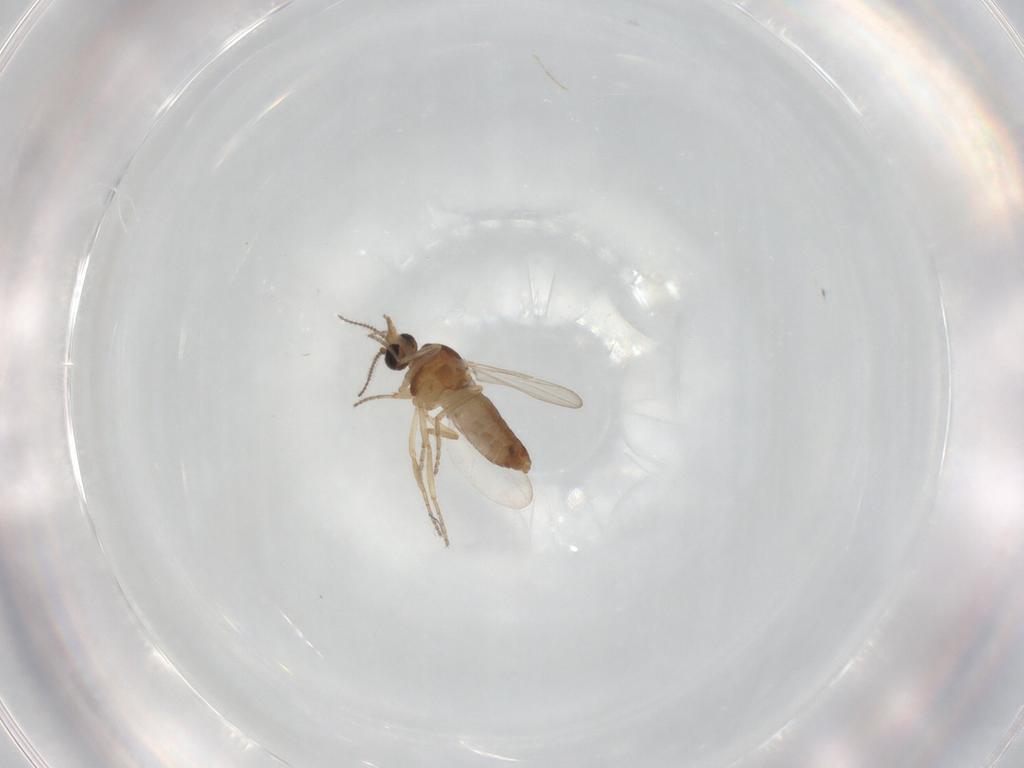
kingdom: Animalia
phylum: Arthropoda
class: Insecta
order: Diptera
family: Ceratopogonidae
